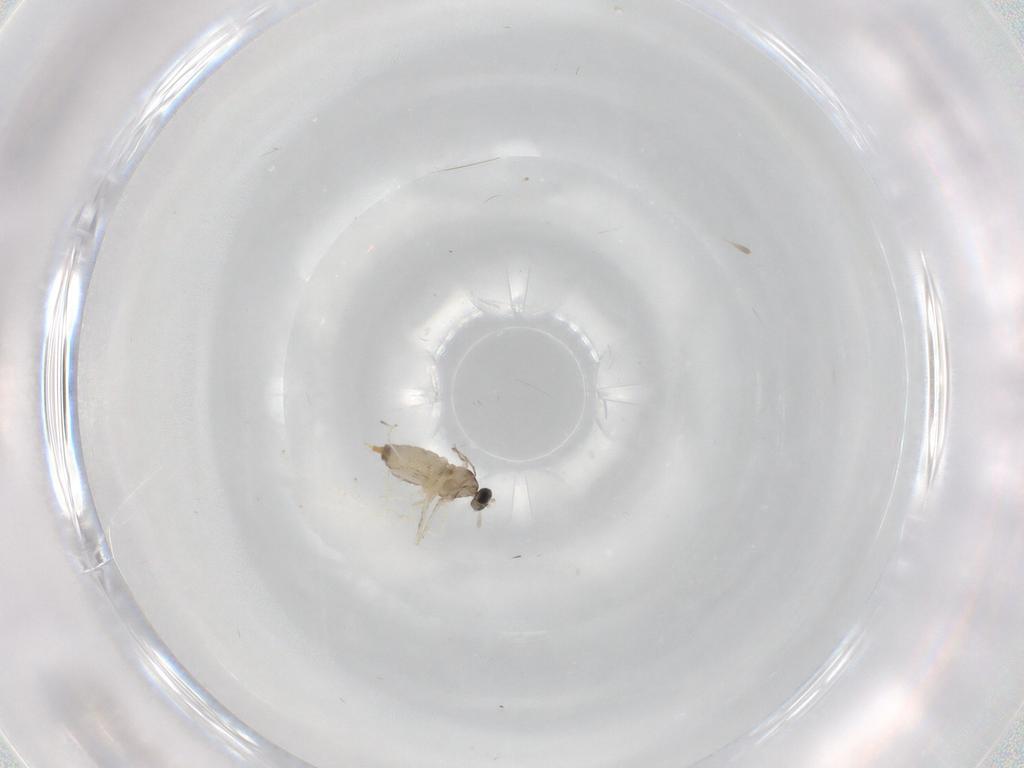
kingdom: Animalia
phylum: Arthropoda
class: Insecta
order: Diptera
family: Cecidomyiidae
